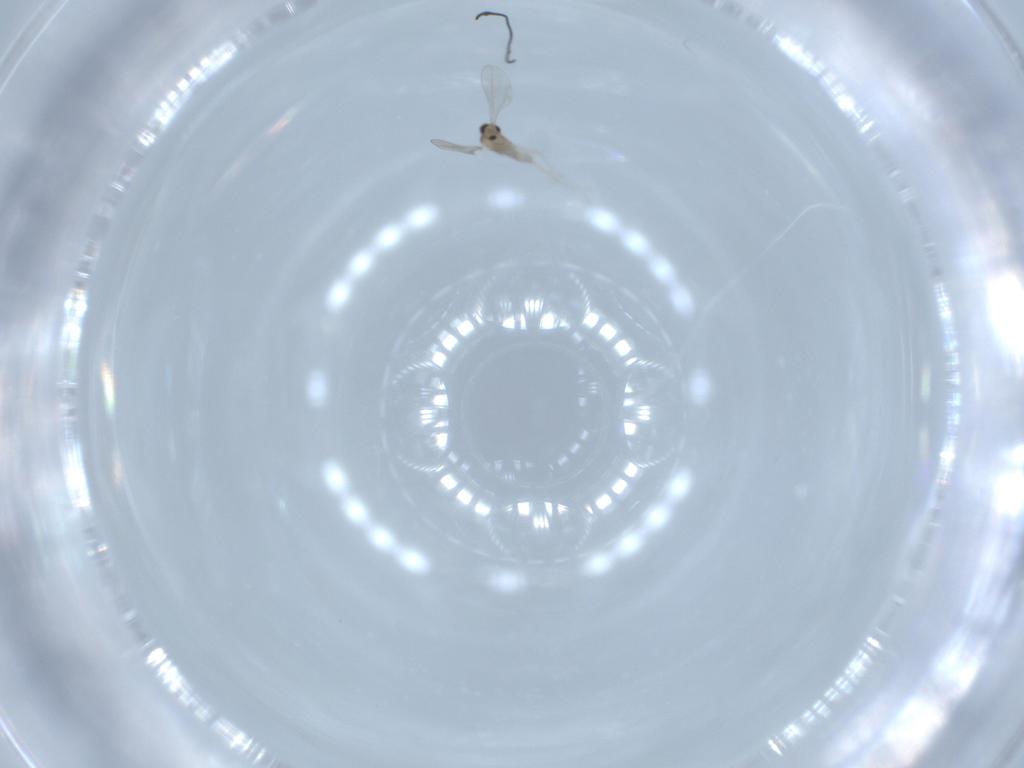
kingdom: Animalia
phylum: Arthropoda
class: Insecta
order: Diptera
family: Cecidomyiidae
